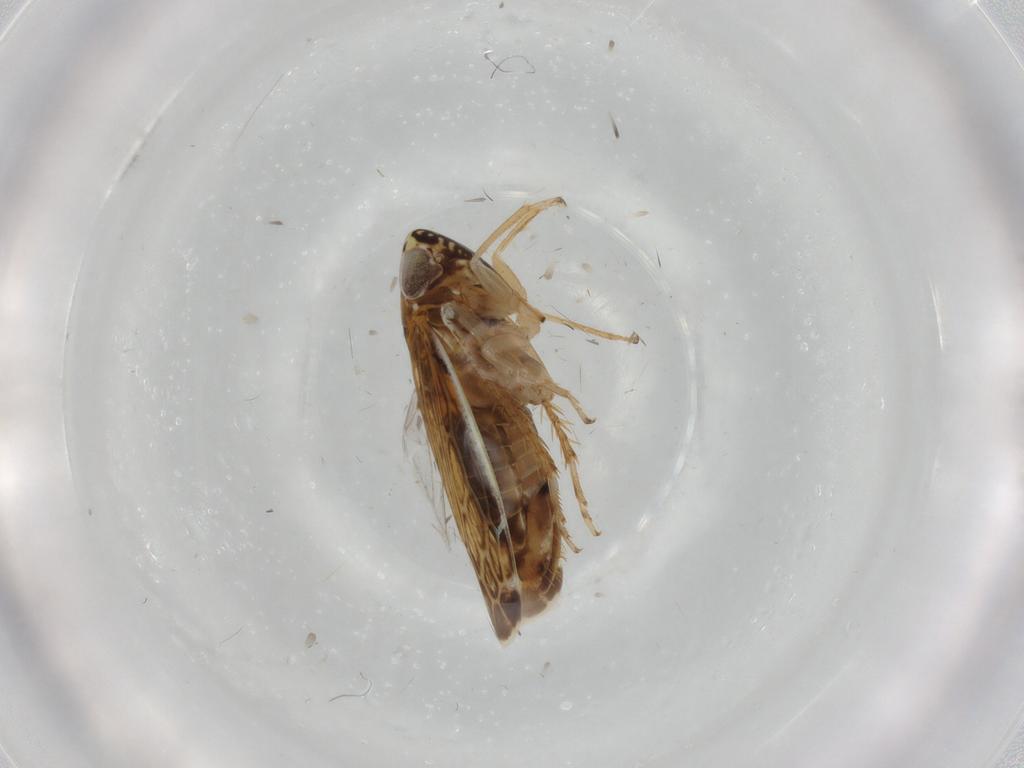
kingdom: Animalia
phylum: Arthropoda
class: Insecta
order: Hemiptera
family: Cicadellidae
